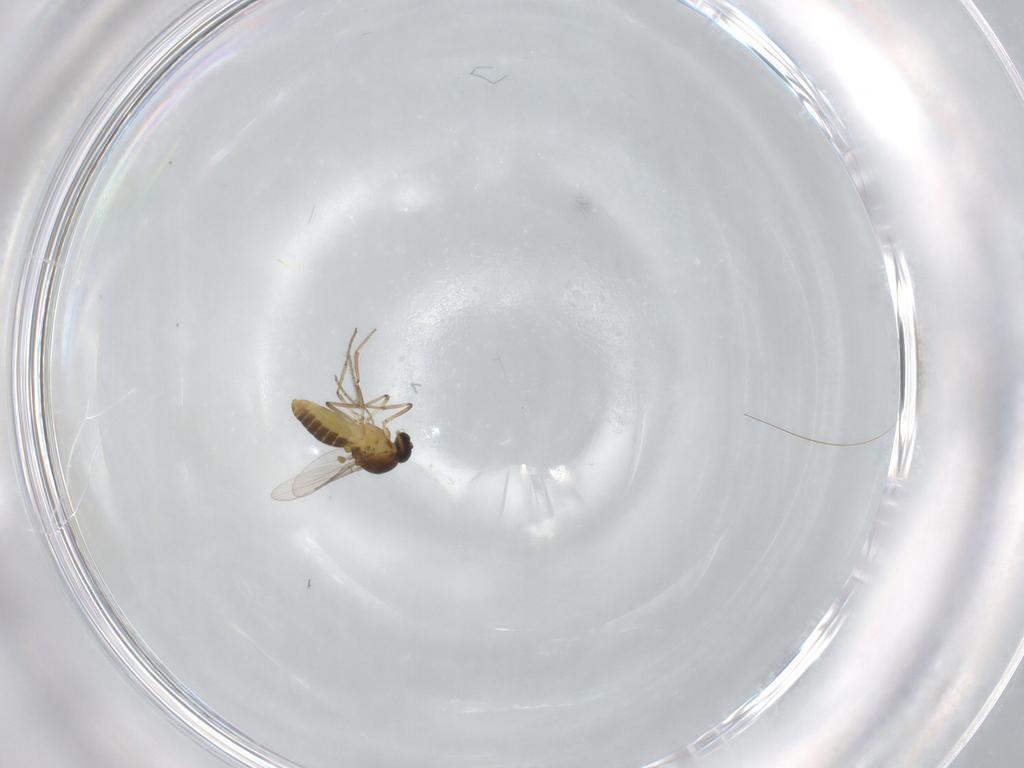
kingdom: Animalia
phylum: Arthropoda
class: Insecta
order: Diptera
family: Ceratopogonidae
